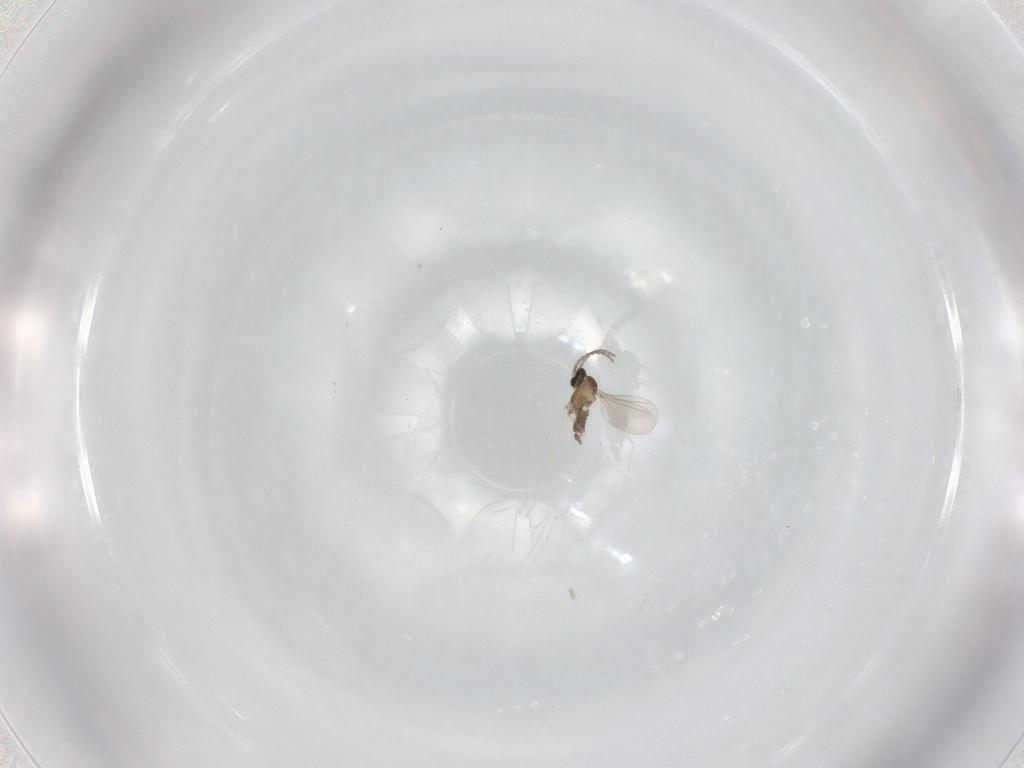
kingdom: Animalia
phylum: Arthropoda
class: Insecta
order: Diptera
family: Cecidomyiidae
